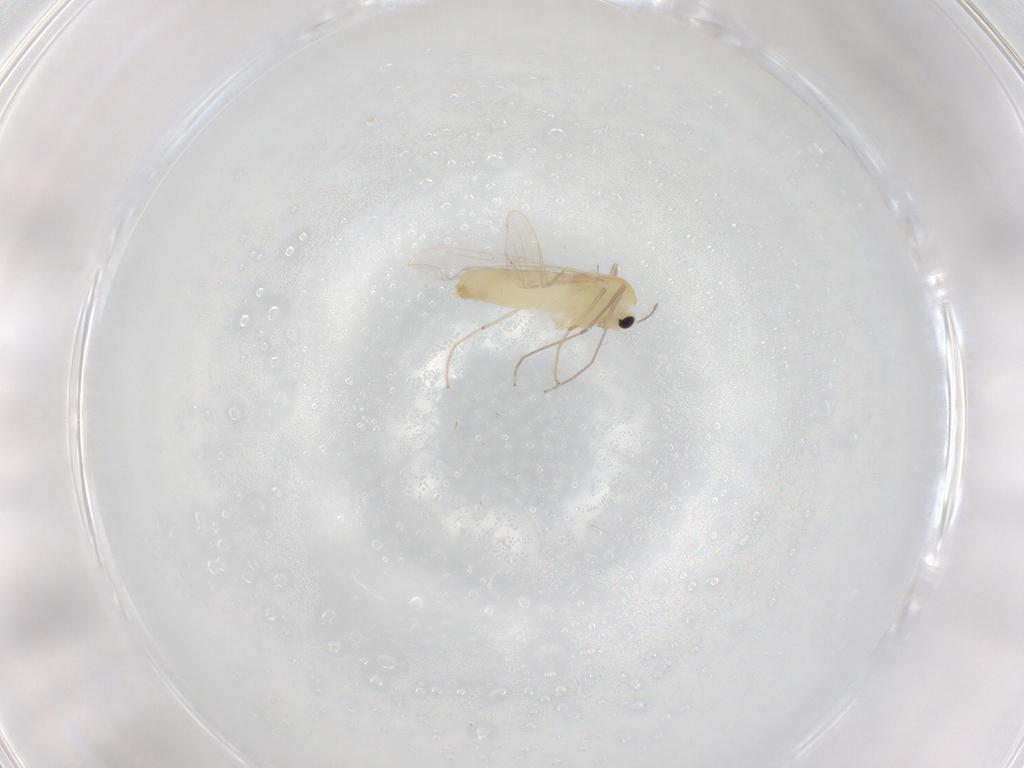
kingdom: Animalia
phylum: Arthropoda
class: Insecta
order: Diptera
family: Chironomidae
